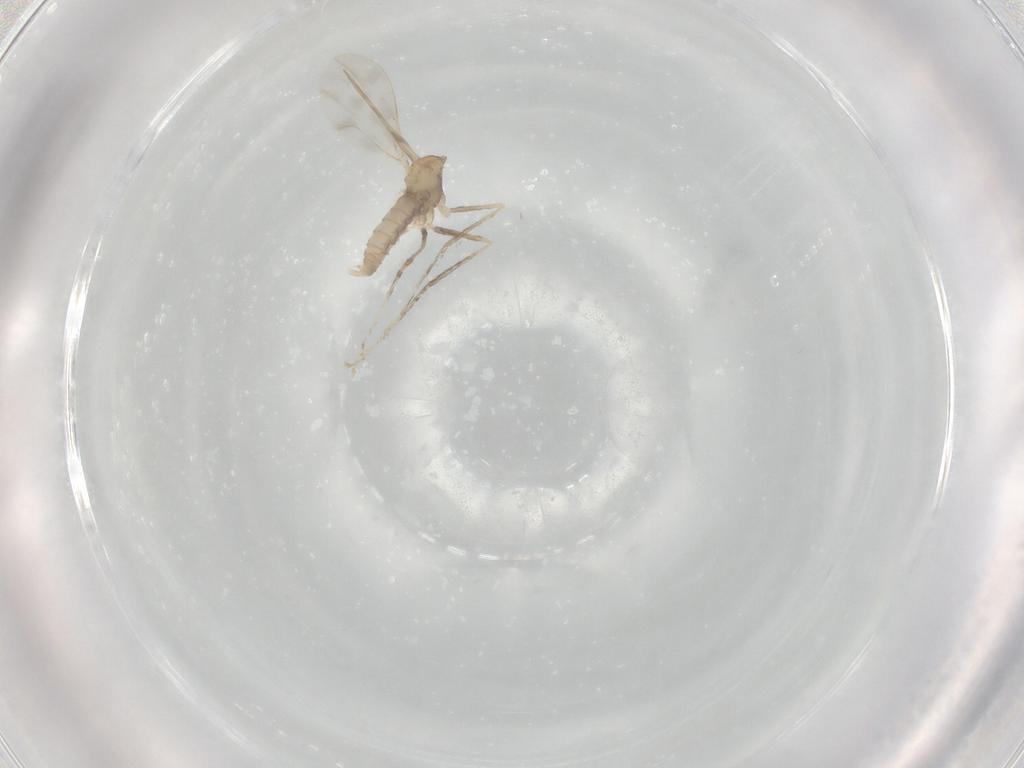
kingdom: Animalia
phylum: Arthropoda
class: Insecta
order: Diptera
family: Cecidomyiidae
